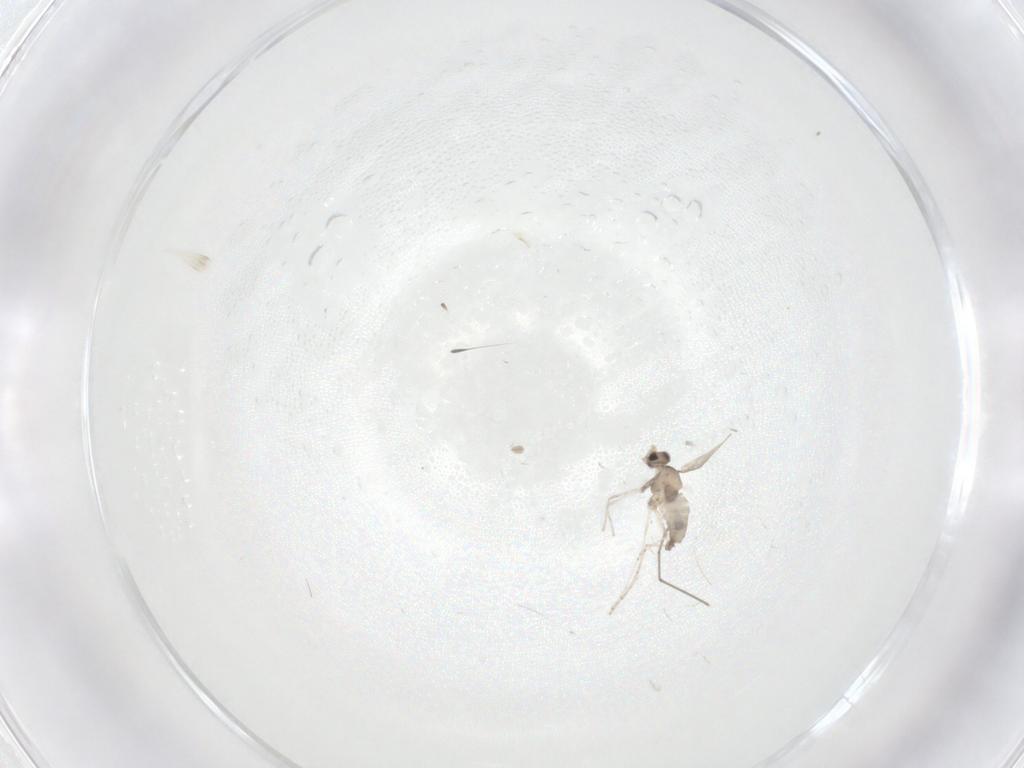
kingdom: Animalia
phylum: Arthropoda
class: Insecta
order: Diptera
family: Cecidomyiidae
